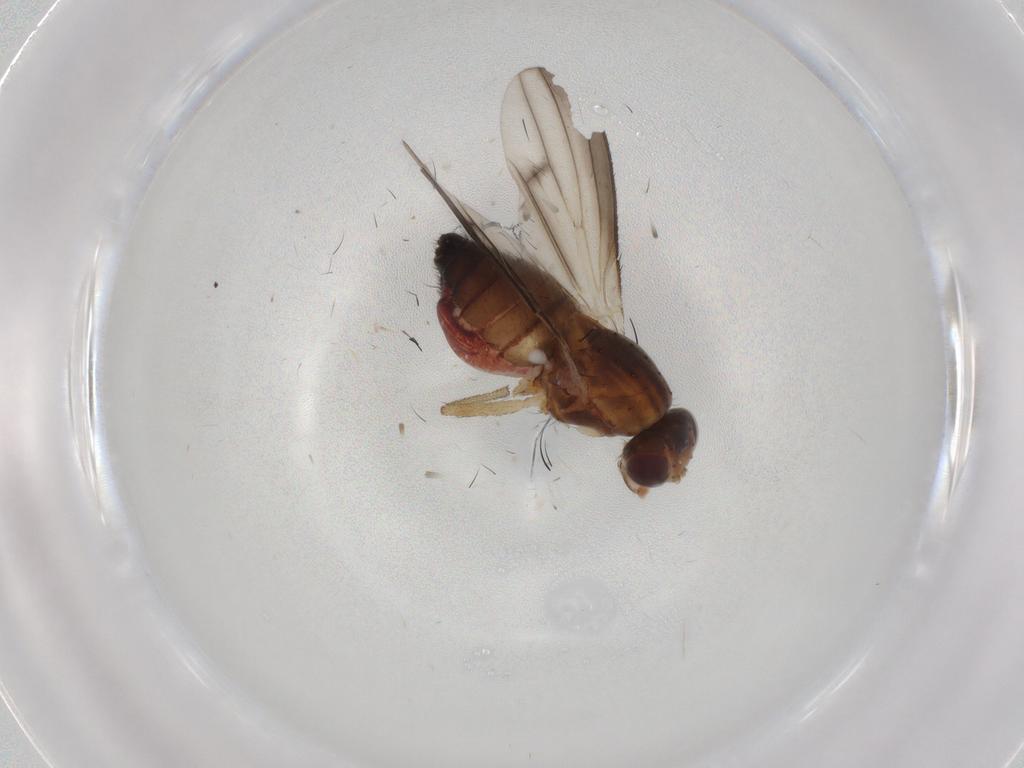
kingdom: Animalia
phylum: Arthropoda
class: Insecta
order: Diptera
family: Heleomyzidae
